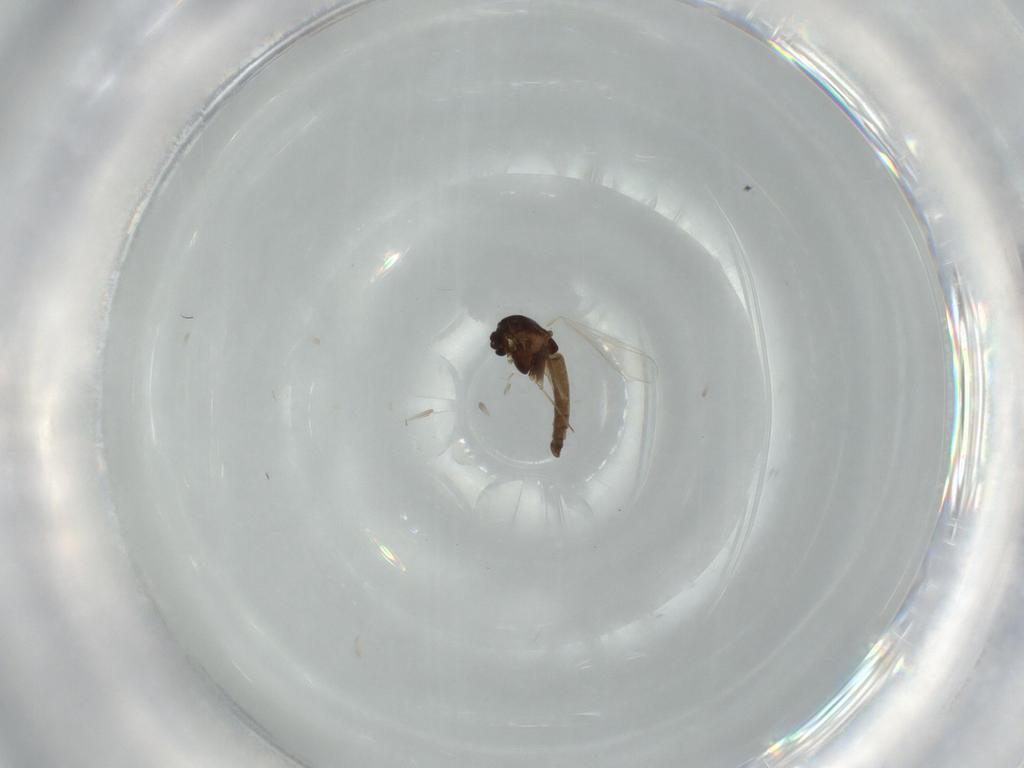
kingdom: Animalia
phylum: Arthropoda
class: Insecta
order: Diptera
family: Chironomidae
